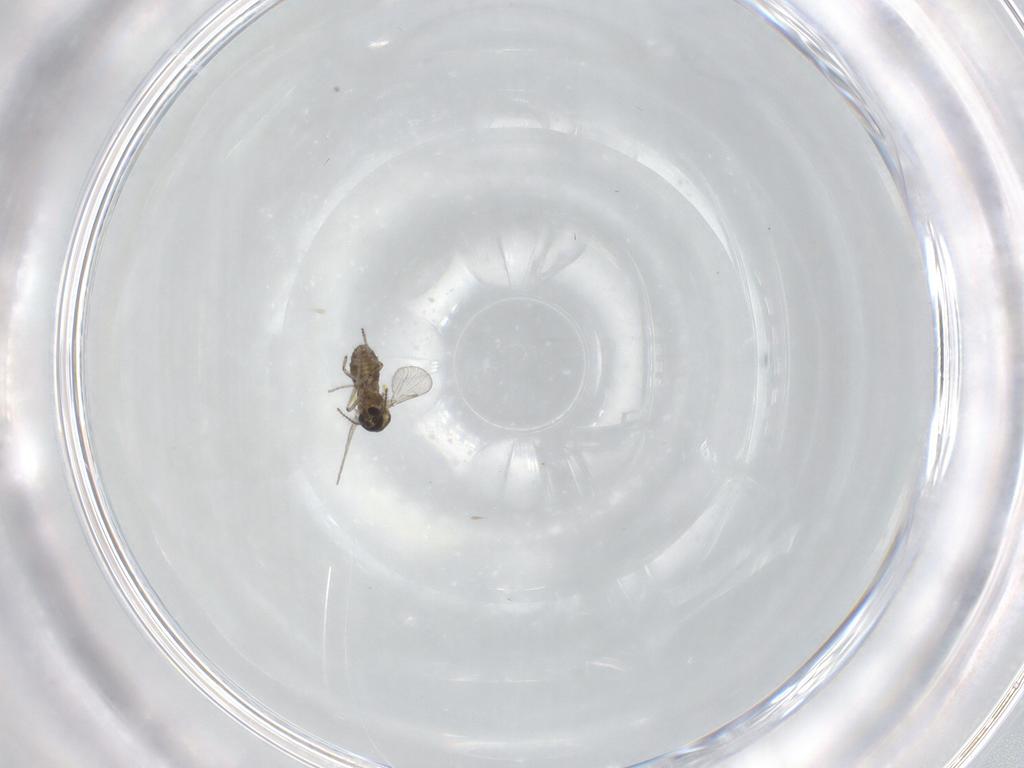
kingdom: Animalia
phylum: Arthropoda
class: Insecta
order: Diptera
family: Ceratopogonidae
